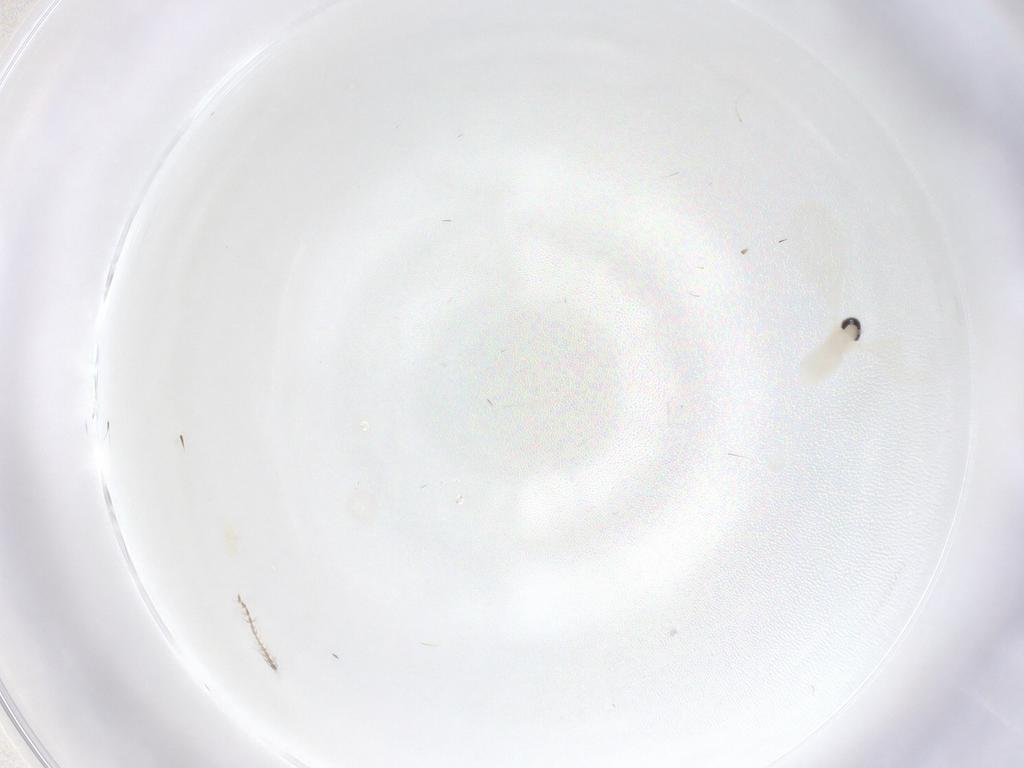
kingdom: Animalia
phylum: Arthropoda
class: Insecta
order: Diptera
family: Cecidomyiidae
